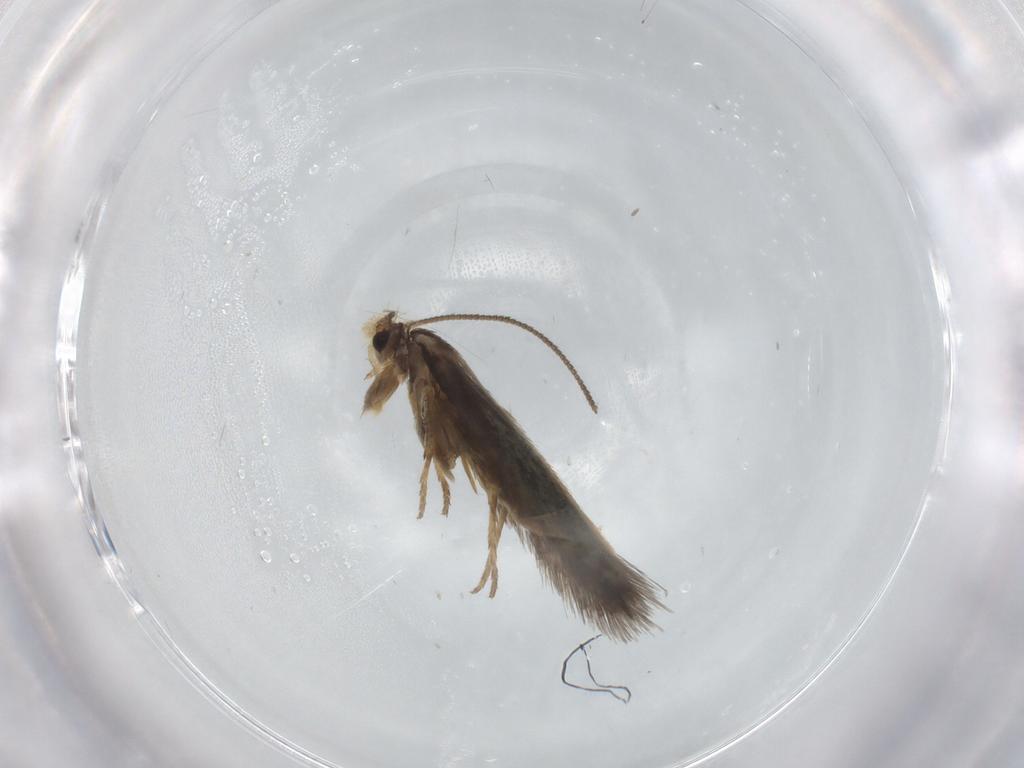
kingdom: Animalia
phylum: Arthropoda
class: Insecta
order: Lepidoptera
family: Nepticulidae
